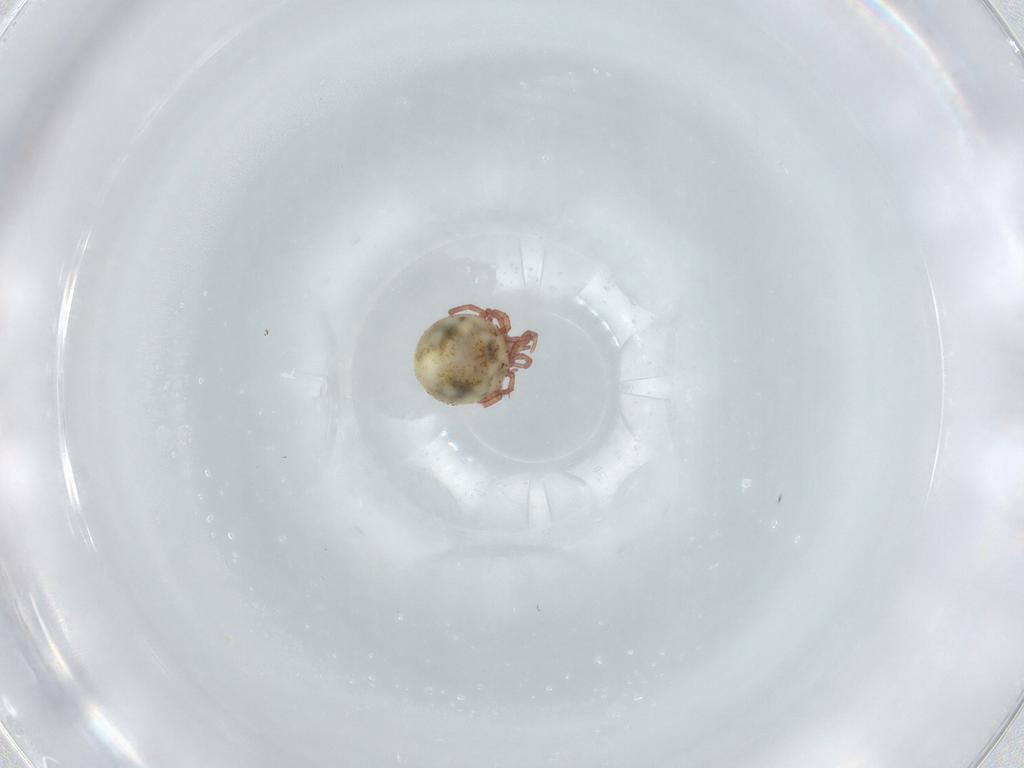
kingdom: Animalia
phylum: Arthropoda
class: Arachnida
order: Trombidiformes
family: Lebertiidae
